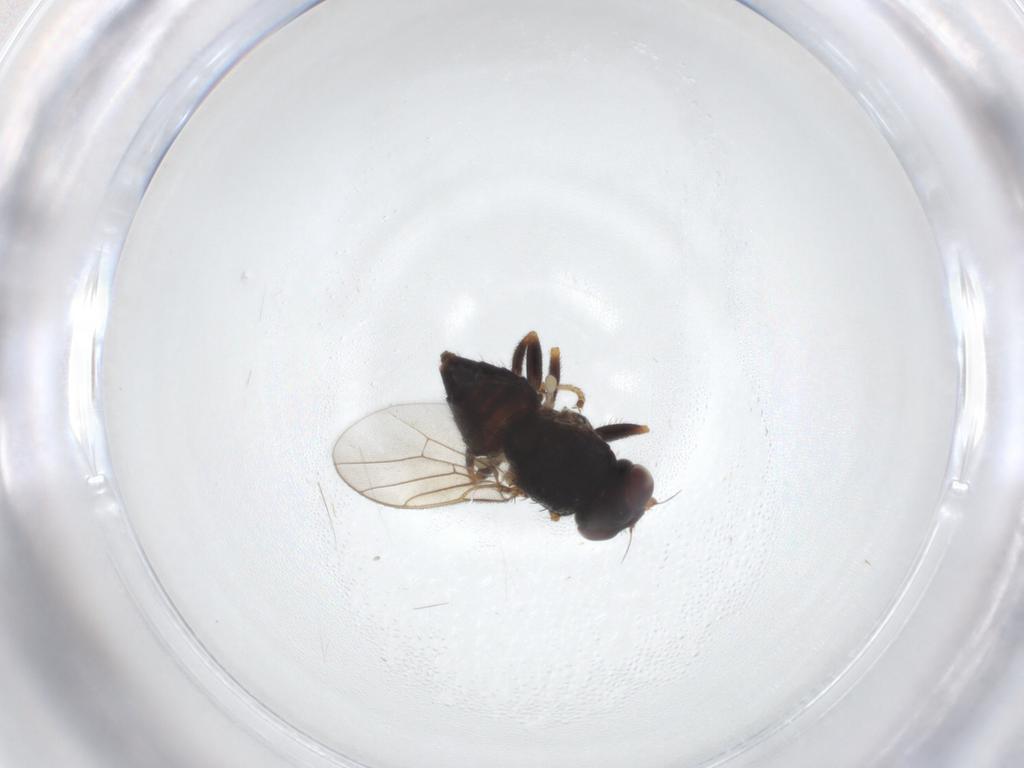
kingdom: Animalia
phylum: Arthropoda
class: Insecta
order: Diptera
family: Chloropidae
